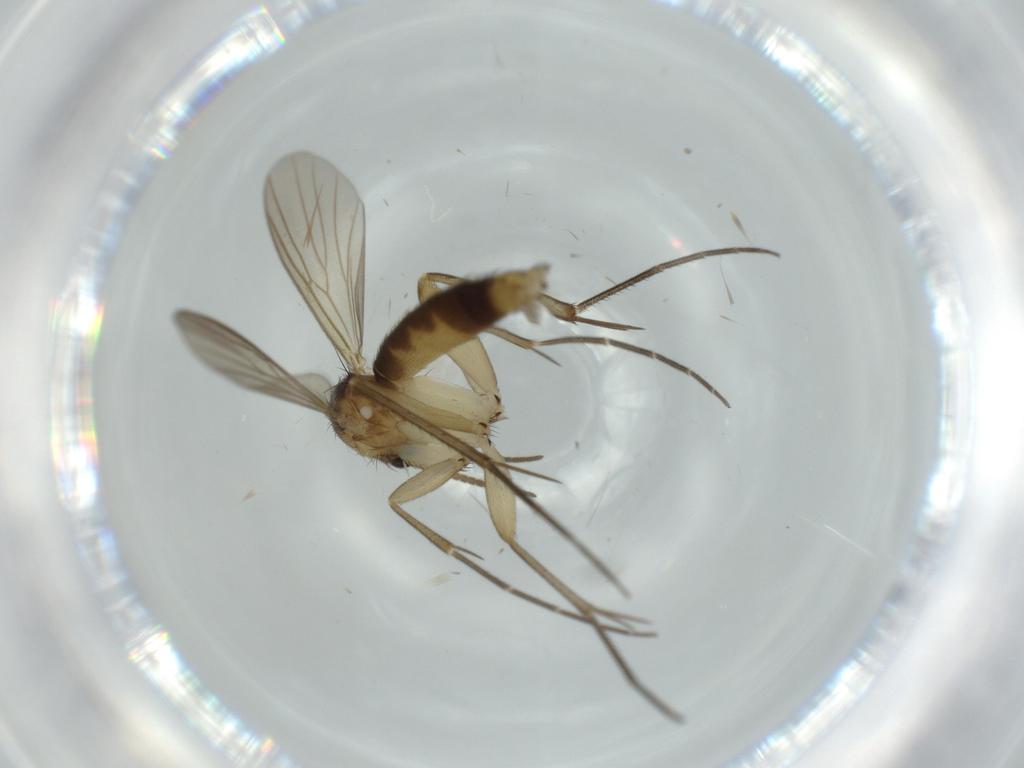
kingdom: Animalia
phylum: Arthropoda
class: Insecta
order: Diptera
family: Mycetophilidae
